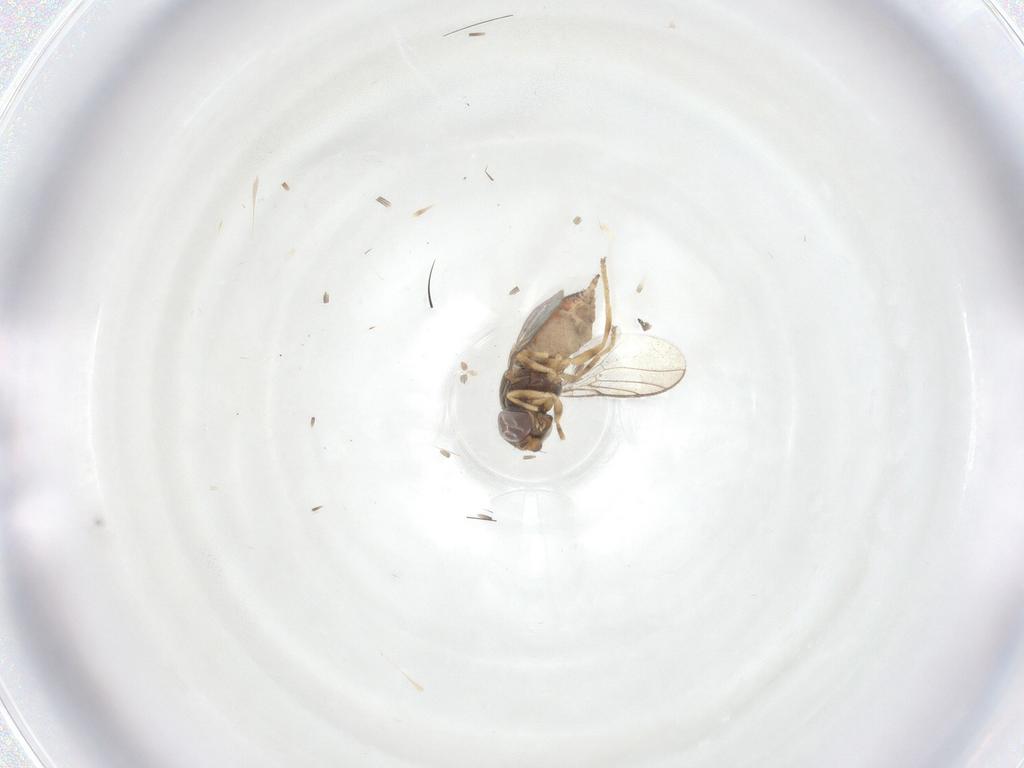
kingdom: Animalia
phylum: Arthropoda
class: Insecta
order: Diptera
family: Chloropidae
